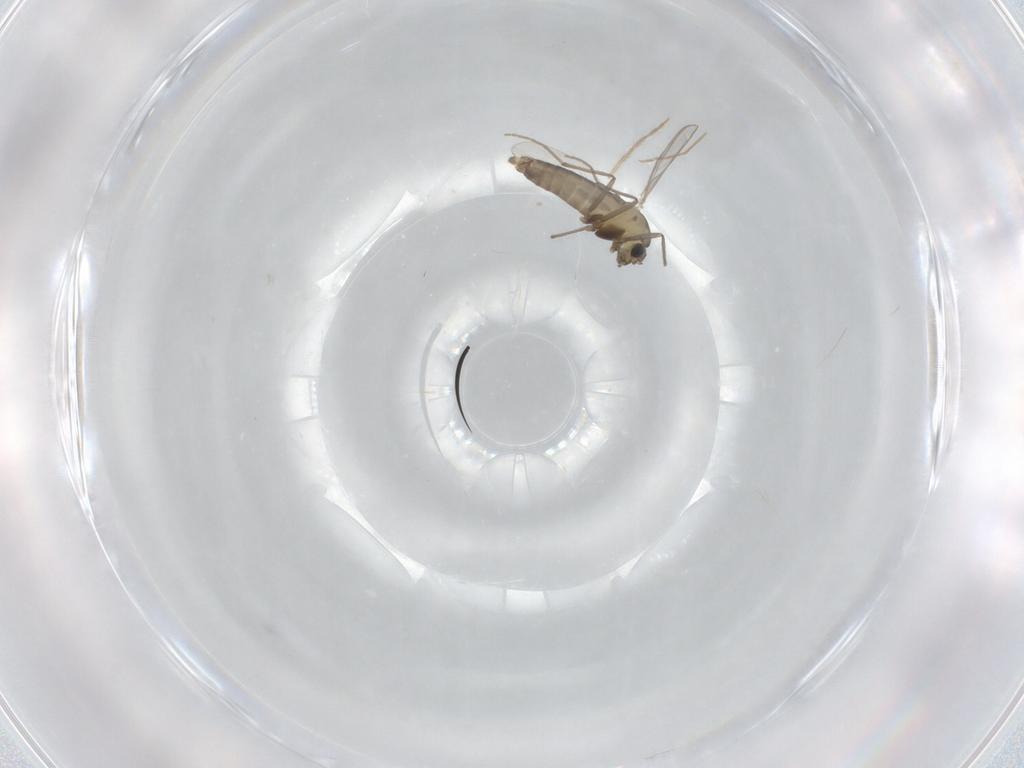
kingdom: Animalia
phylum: Arthropoda
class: Insecta
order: Diptera
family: Chironomidae
